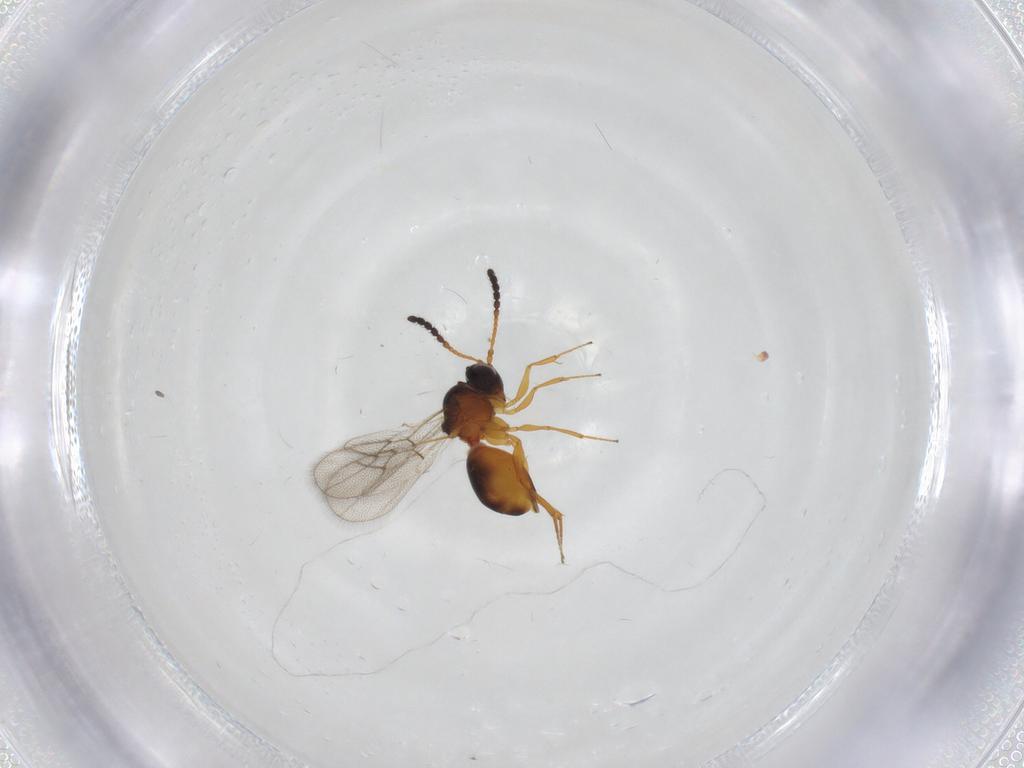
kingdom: Animalia
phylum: Arthropoda
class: Insecta
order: Hymenoptera
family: Figitidae
